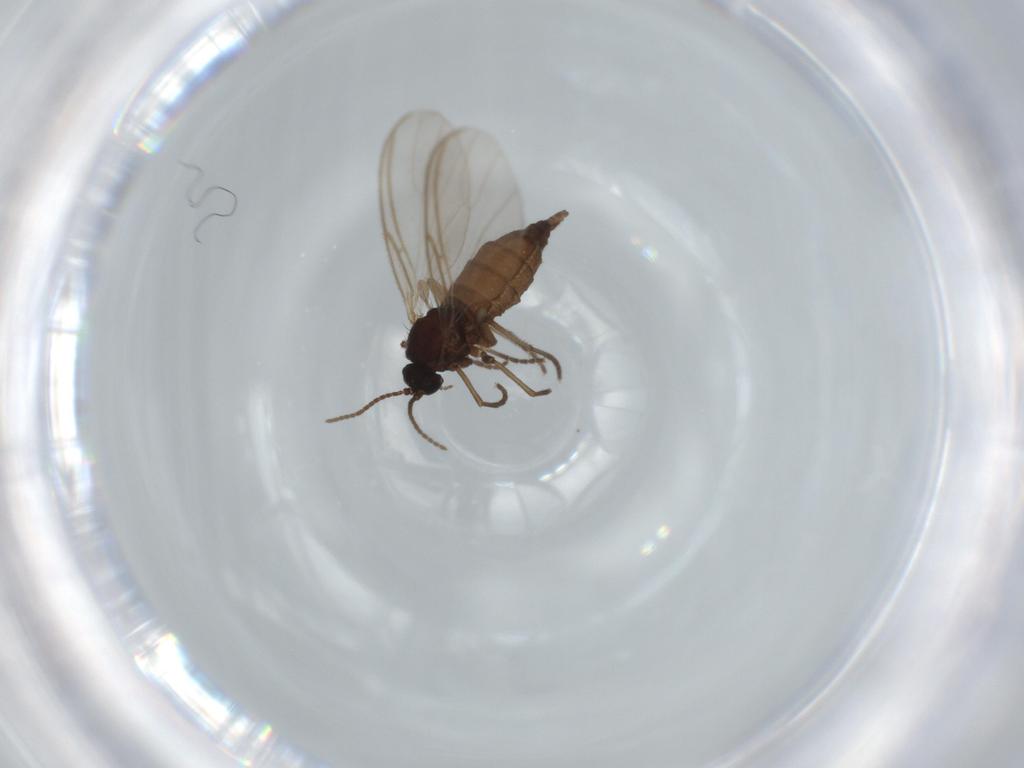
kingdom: Animalia
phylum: Arthropoda
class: Insecta
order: Diptera
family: Sciaridae
